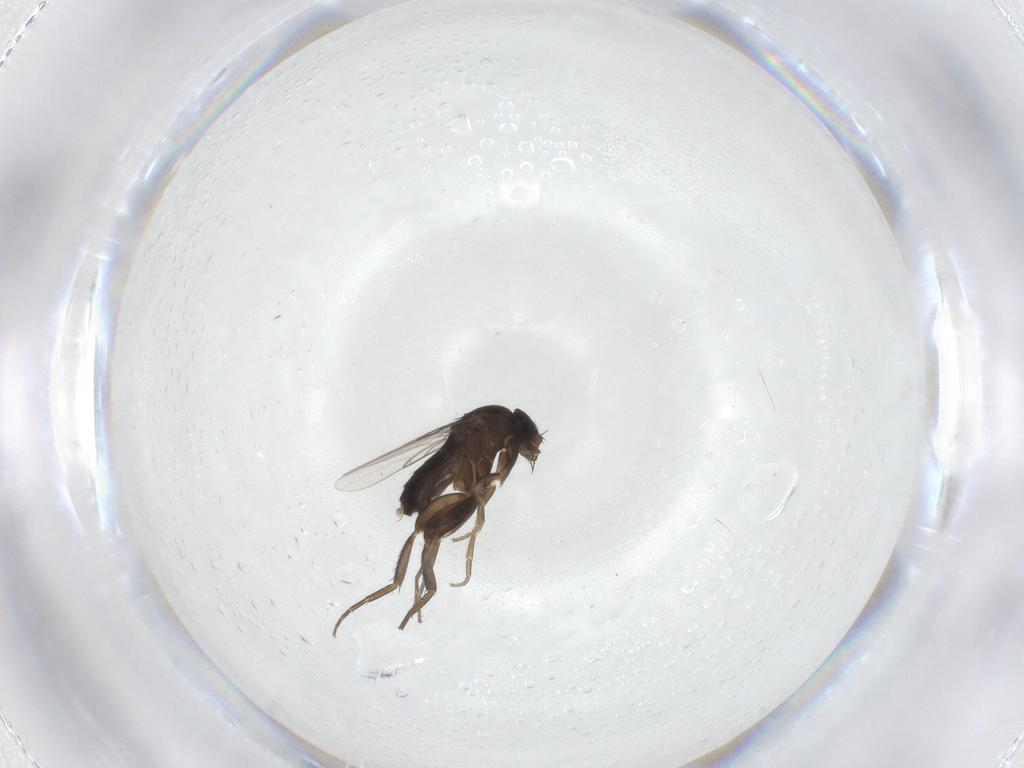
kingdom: Animalia
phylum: Arthropoda
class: Insecta
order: Diptera
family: Phoridae
